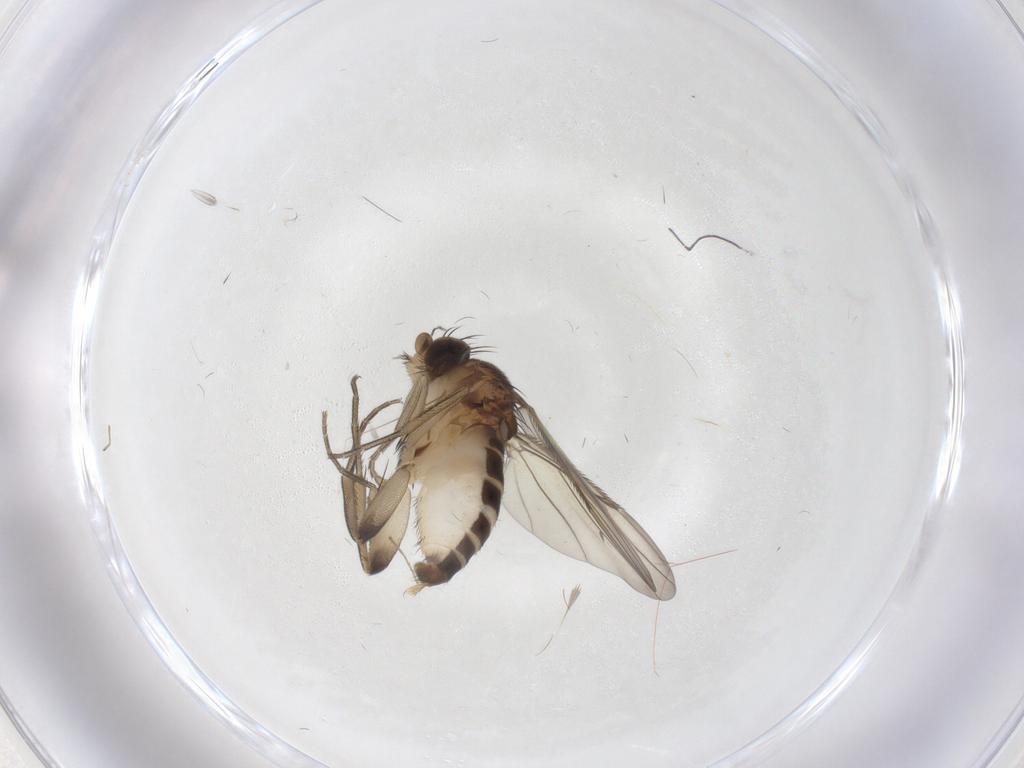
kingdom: Animalia
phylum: Arthropoda
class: Insecta
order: Diptera
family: Phoridae
